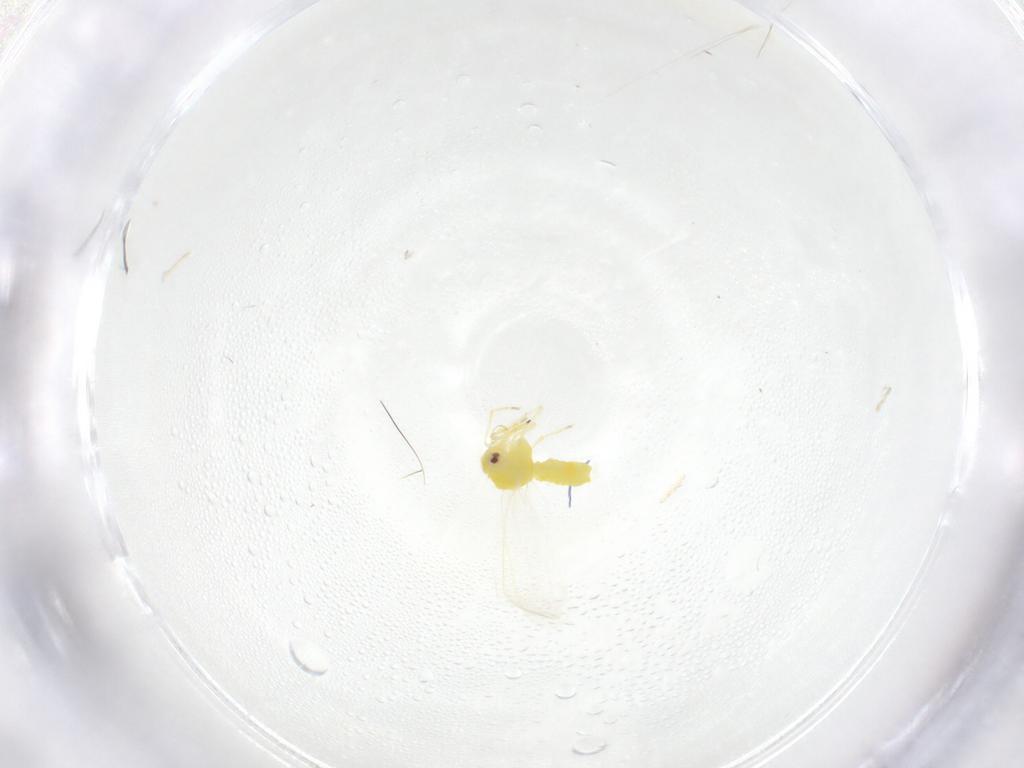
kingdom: Animalia
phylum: Arthropoda
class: Insecta
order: Hemiptera
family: Aleyrodidae
